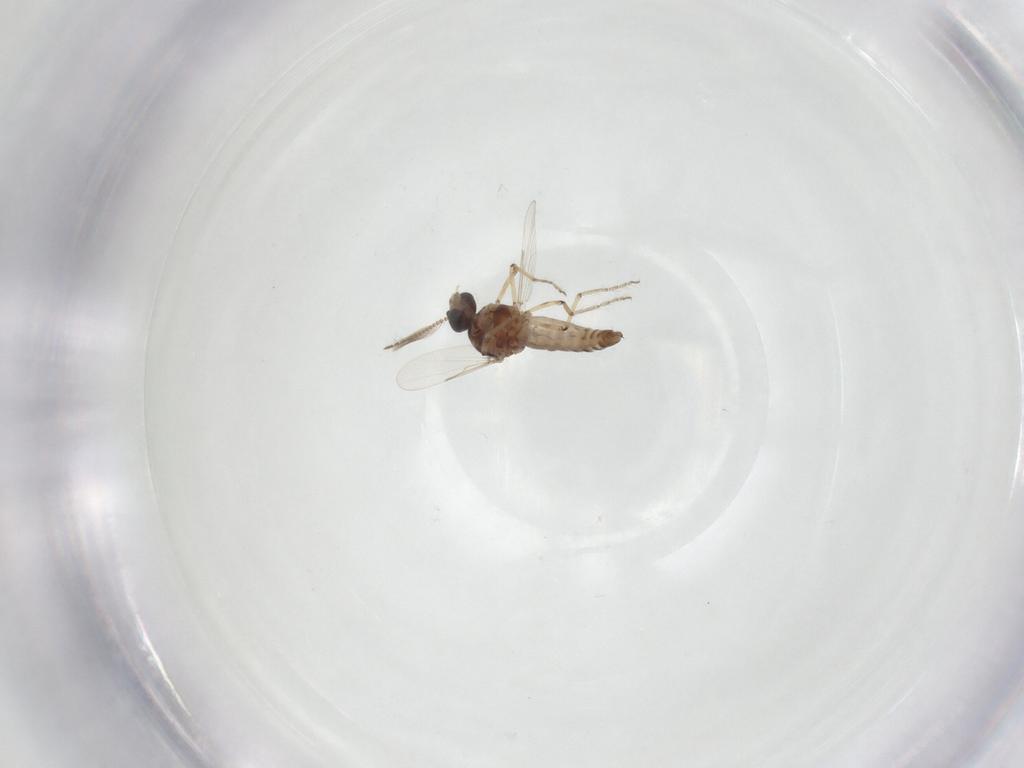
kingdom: Animalia
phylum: Arthropoda
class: Insecta
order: Diptera
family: Ceratopogonidae
